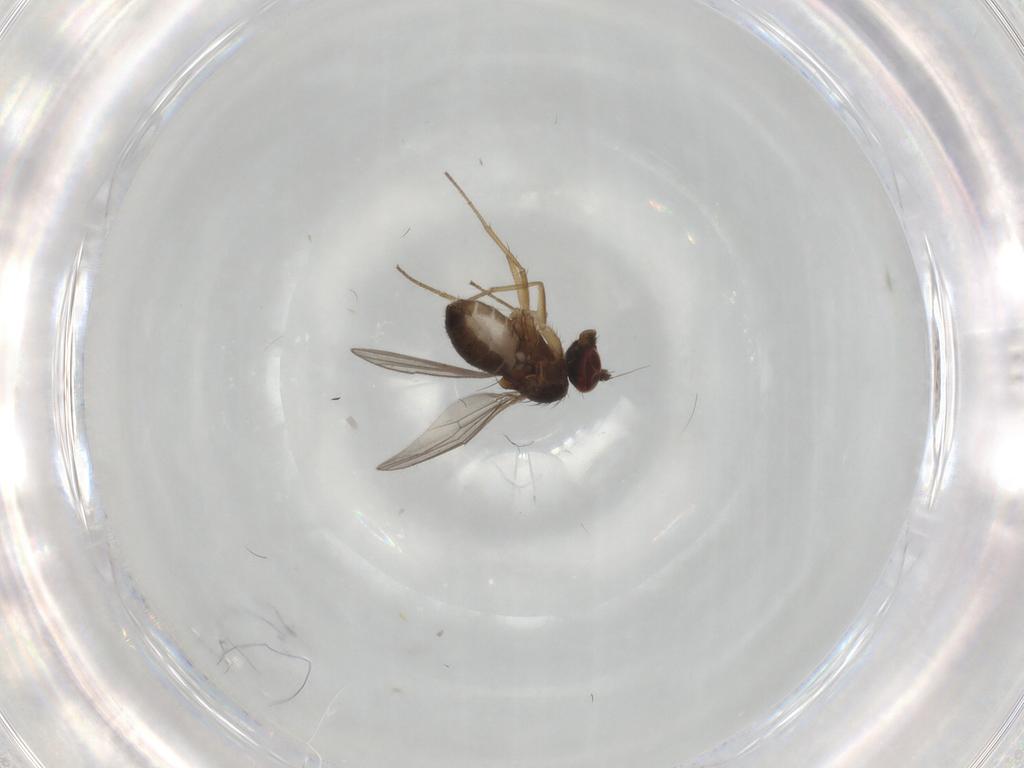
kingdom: Animalia
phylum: Arthropoda
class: Insecta
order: Diptera
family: Dolichopodidae
